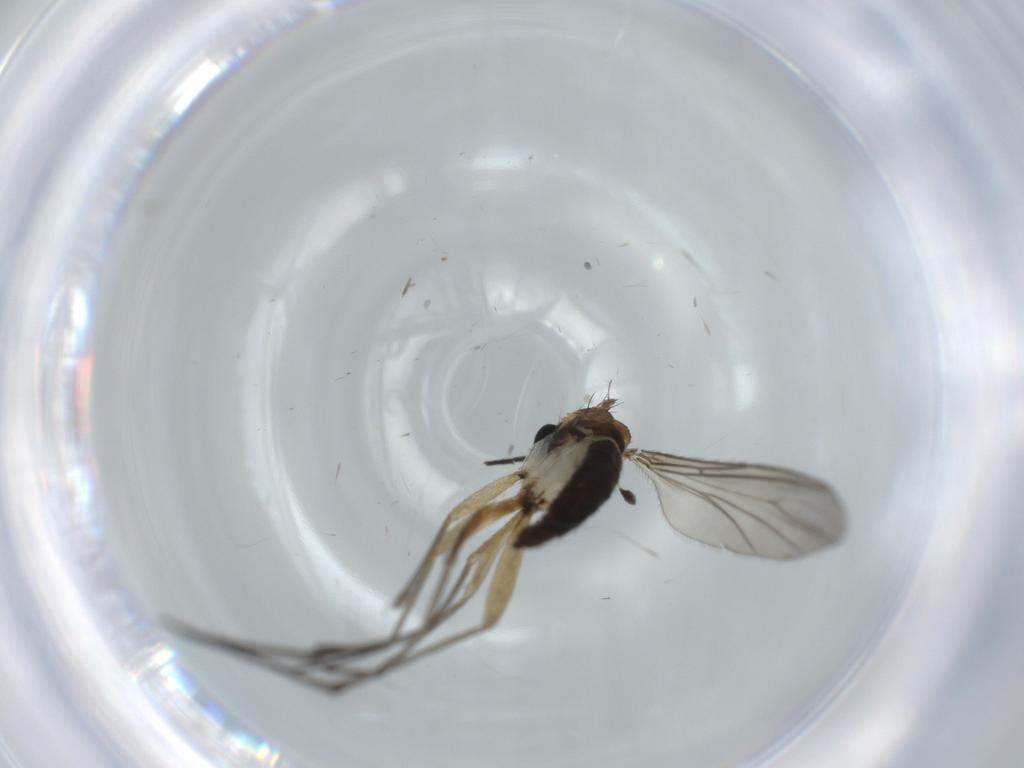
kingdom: Animalia
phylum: Arthropoda
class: Insecta
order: Diptera
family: Sciaridae
